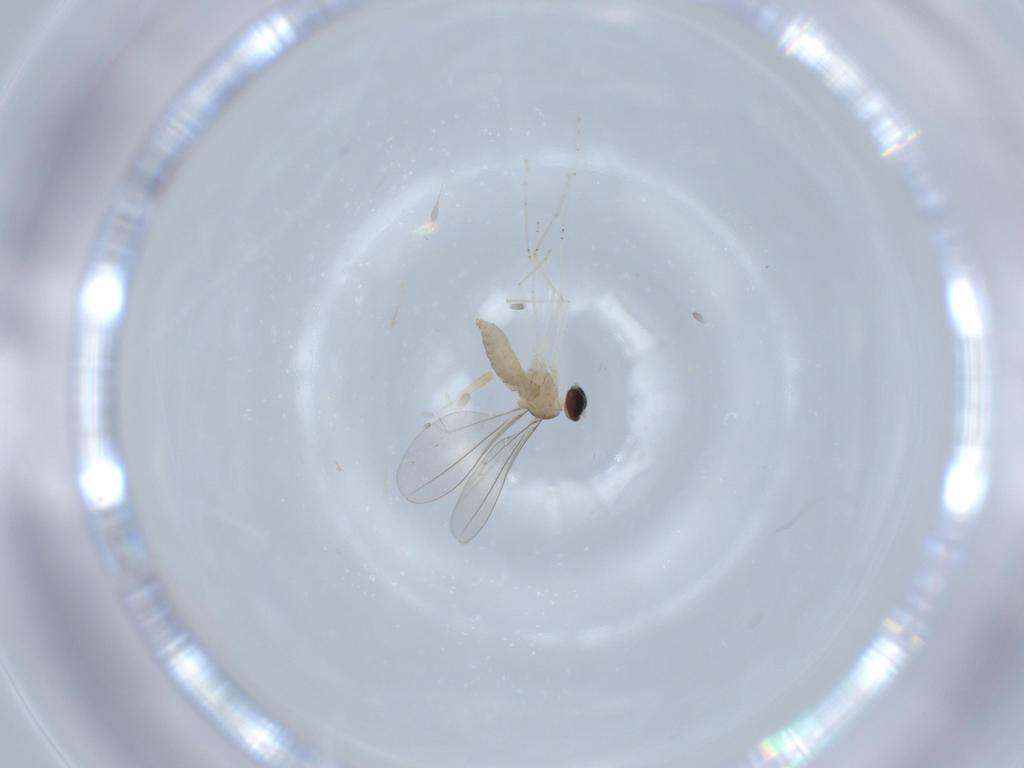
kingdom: Animalia
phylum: Arthropoda
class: Insecta
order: Diptera
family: Cecidomyiidae
